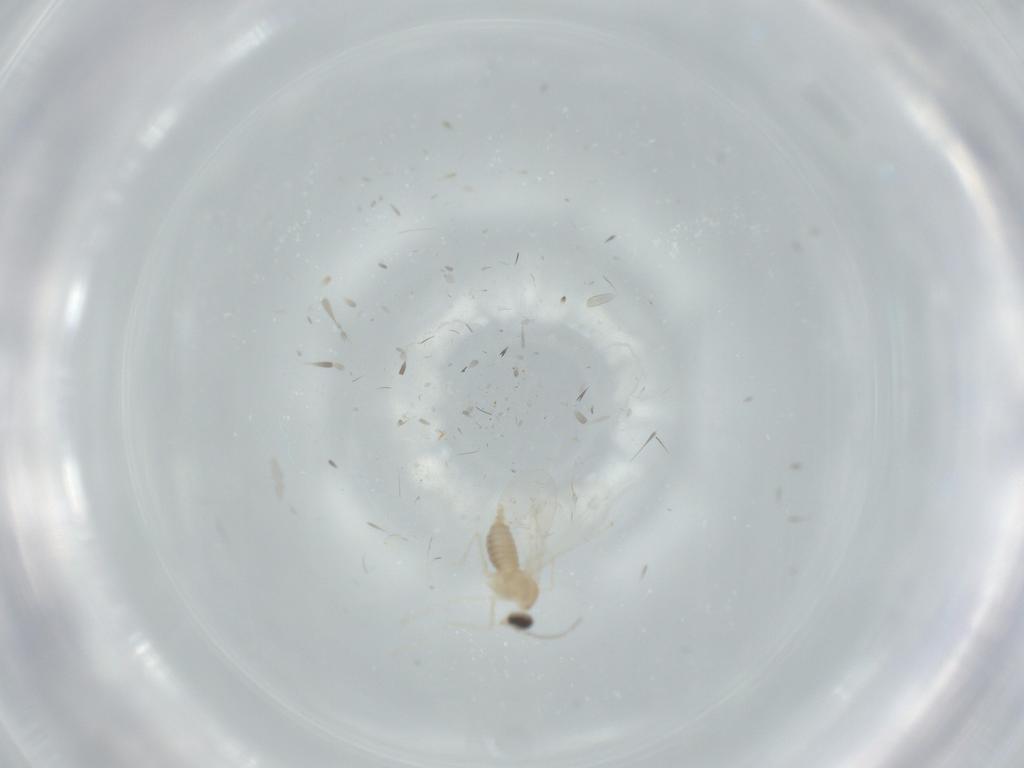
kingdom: Animalia
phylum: Arthropoda
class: Insecta
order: Diptera
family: Cecidomyiidae
